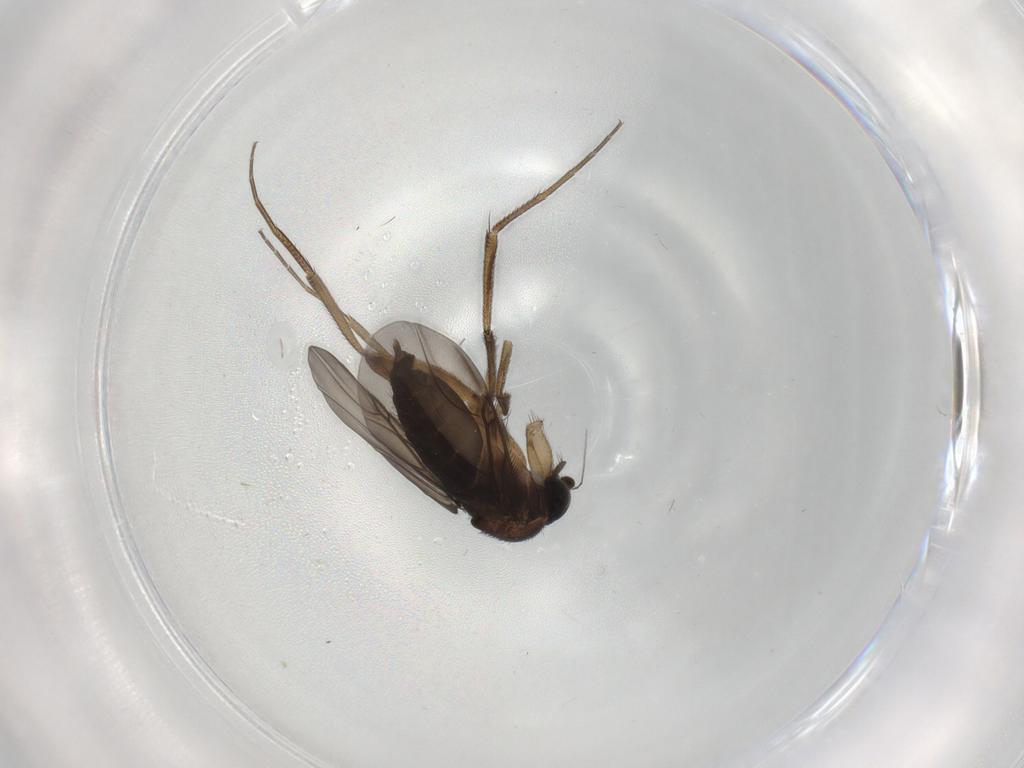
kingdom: Animalia
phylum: Arthropoda
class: Insecta
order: Diptera
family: Phoridae
